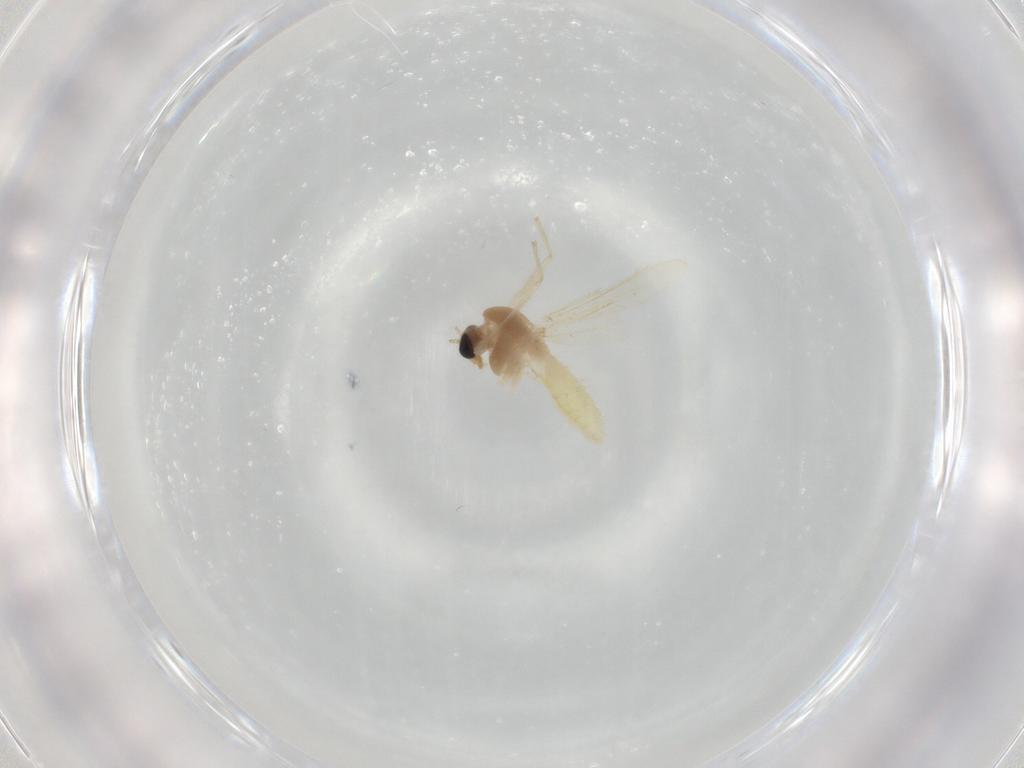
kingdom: Animalia
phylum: Arthropoda
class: Insecta
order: Diptera
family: Chironomidae
